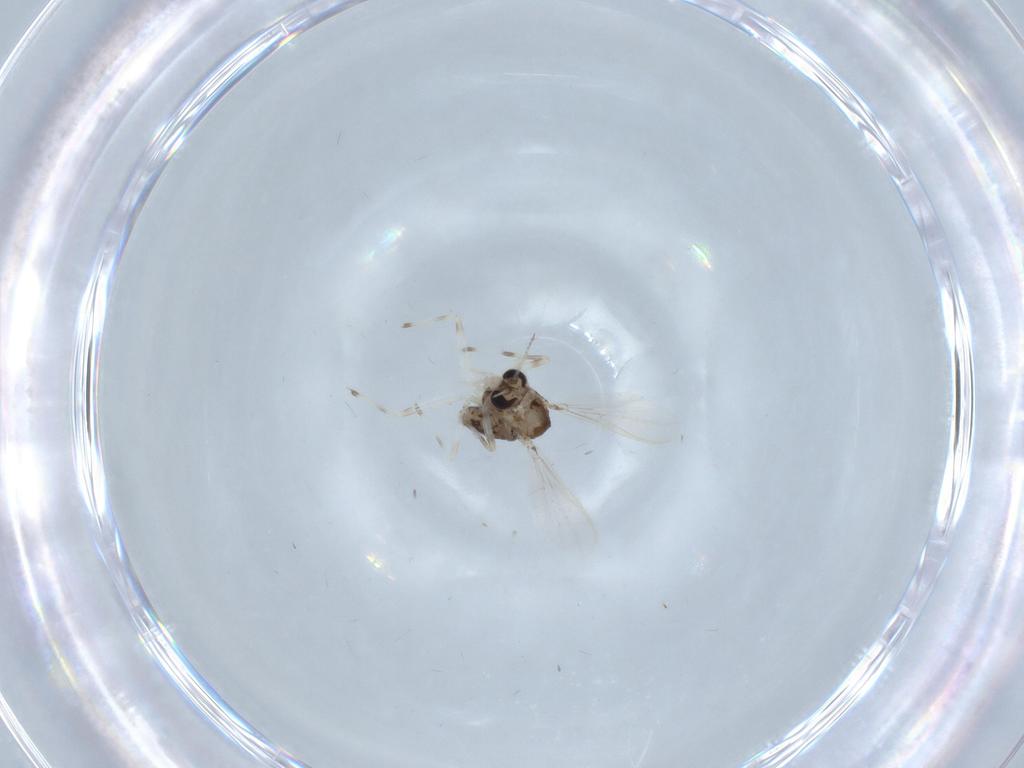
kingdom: Animalia
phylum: Arthropoda
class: Insecta
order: Diptera
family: Chironomidae
